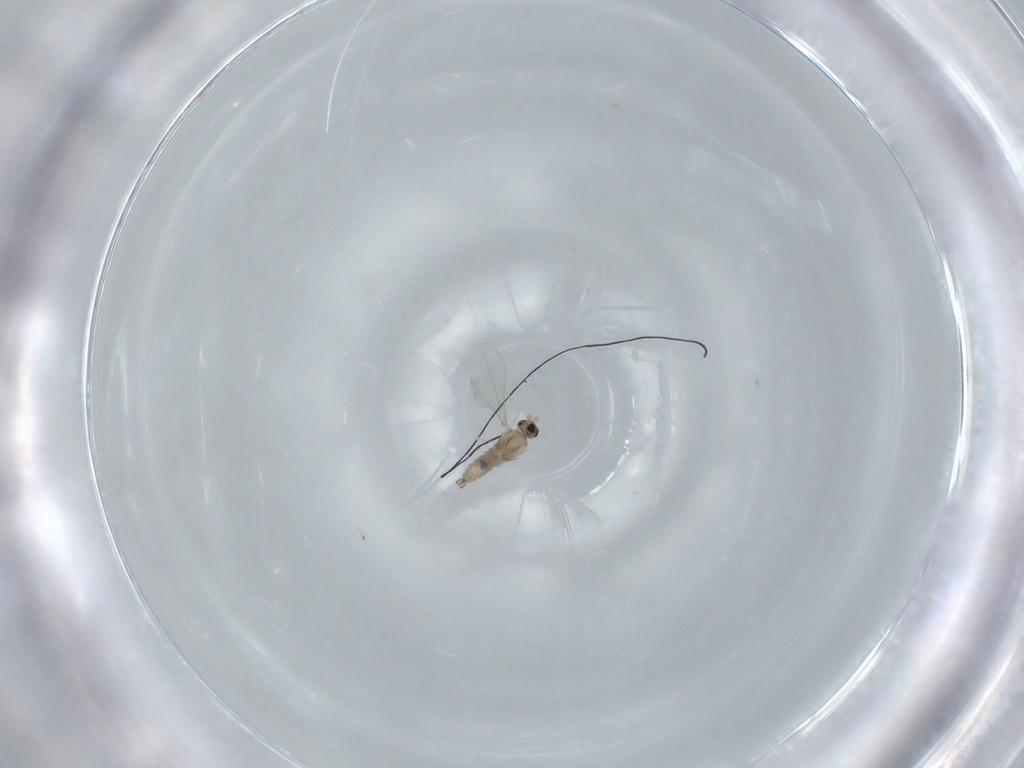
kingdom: Animalia
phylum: Arthropoda
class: Insecta
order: Diptera
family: Cecidomyiidae
